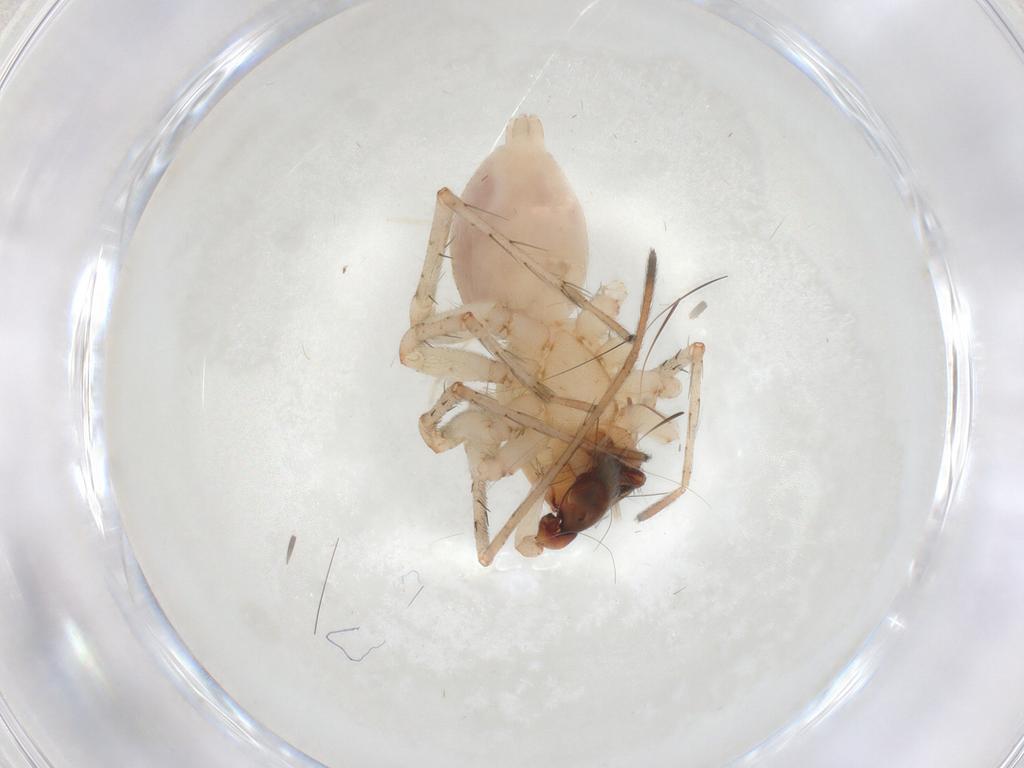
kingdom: Animalia
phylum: Arthropoda
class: Arachnida
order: Araneae
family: Anyphaenidae
